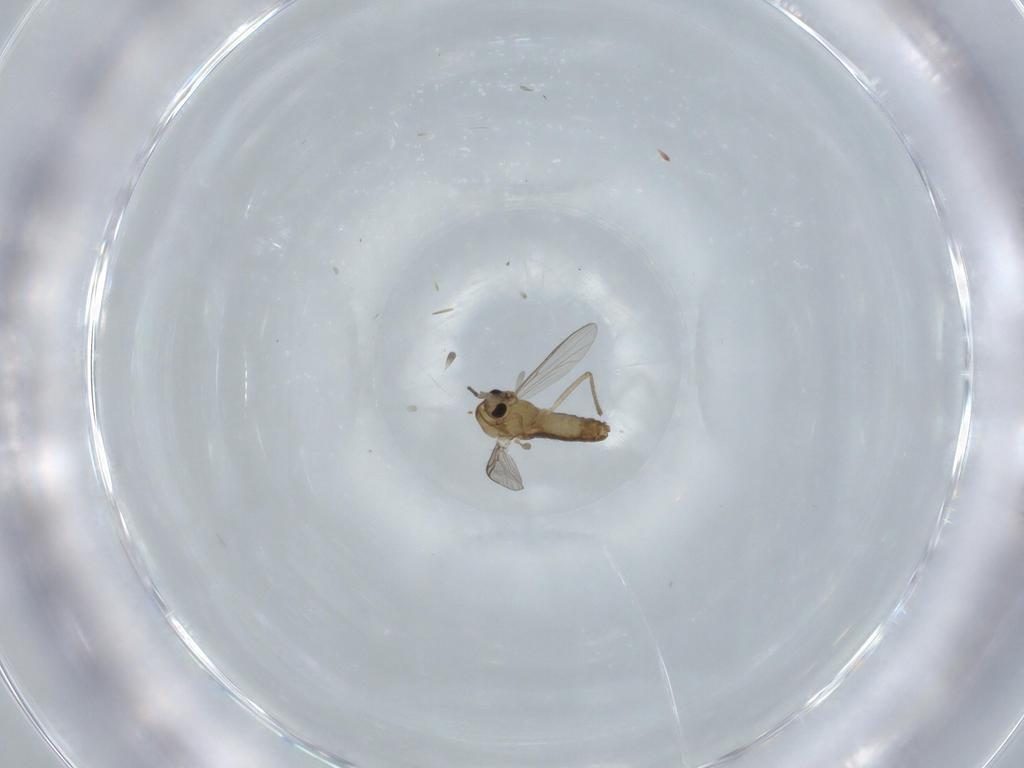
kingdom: Animalia
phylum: Arthropoda
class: Insecta
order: Diptera
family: Chironomidae
